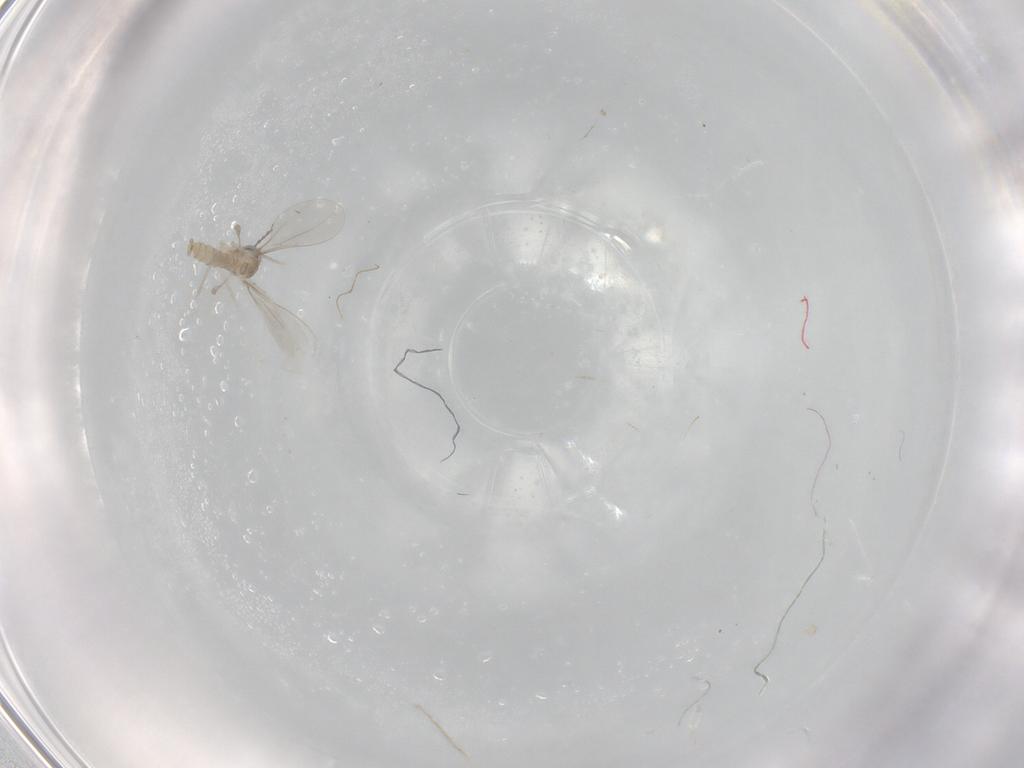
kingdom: Animalia
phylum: Arthropoda
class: Insecta
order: Diptera
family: Cecidomyiidae
